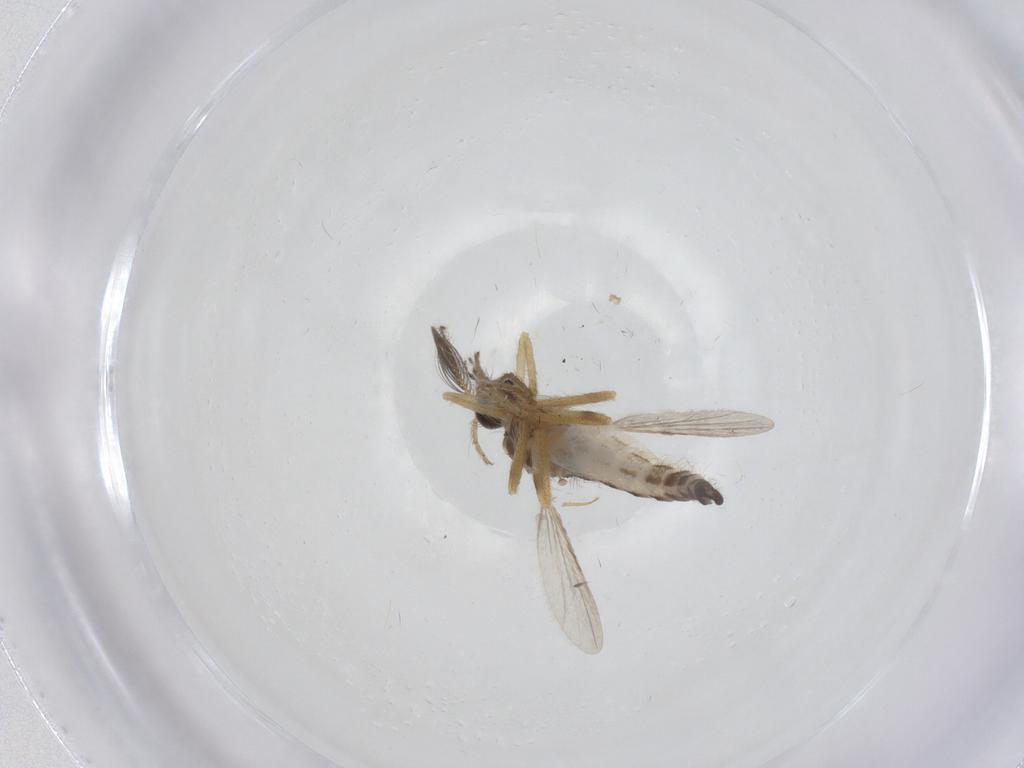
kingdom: Animalia
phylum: Arthropoda
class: Insecta
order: Diptera
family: Ceratopogonidae
